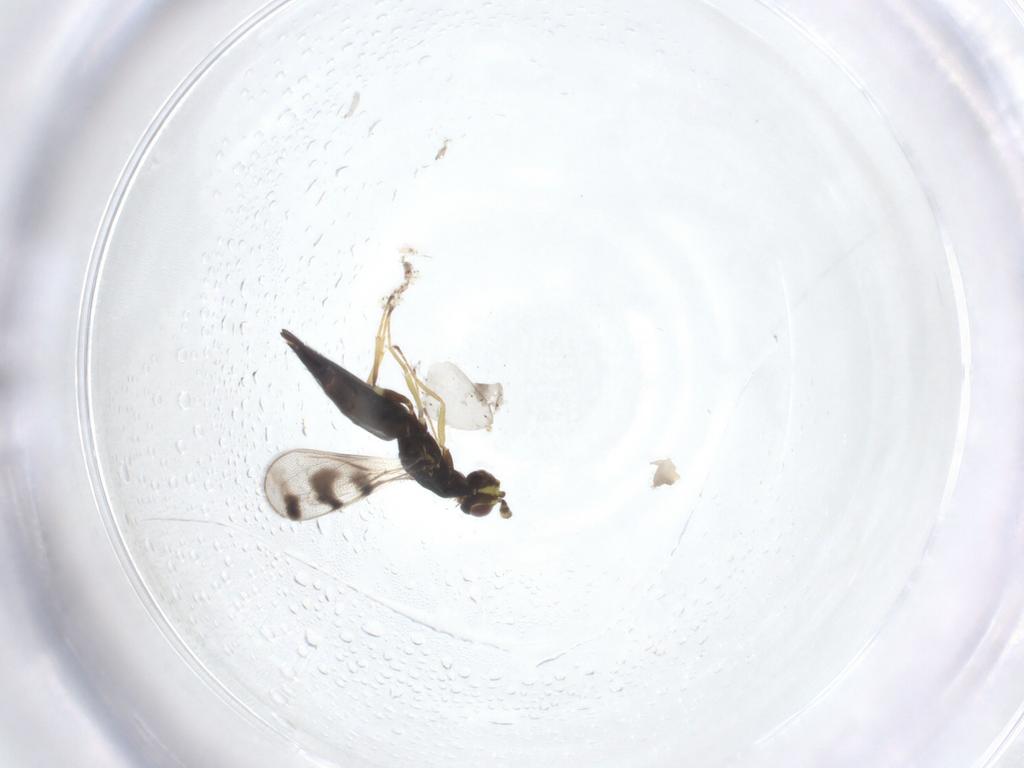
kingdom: Animalia
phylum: Arthropoda
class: Insecta
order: Hymenoptera
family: Eulophidae
